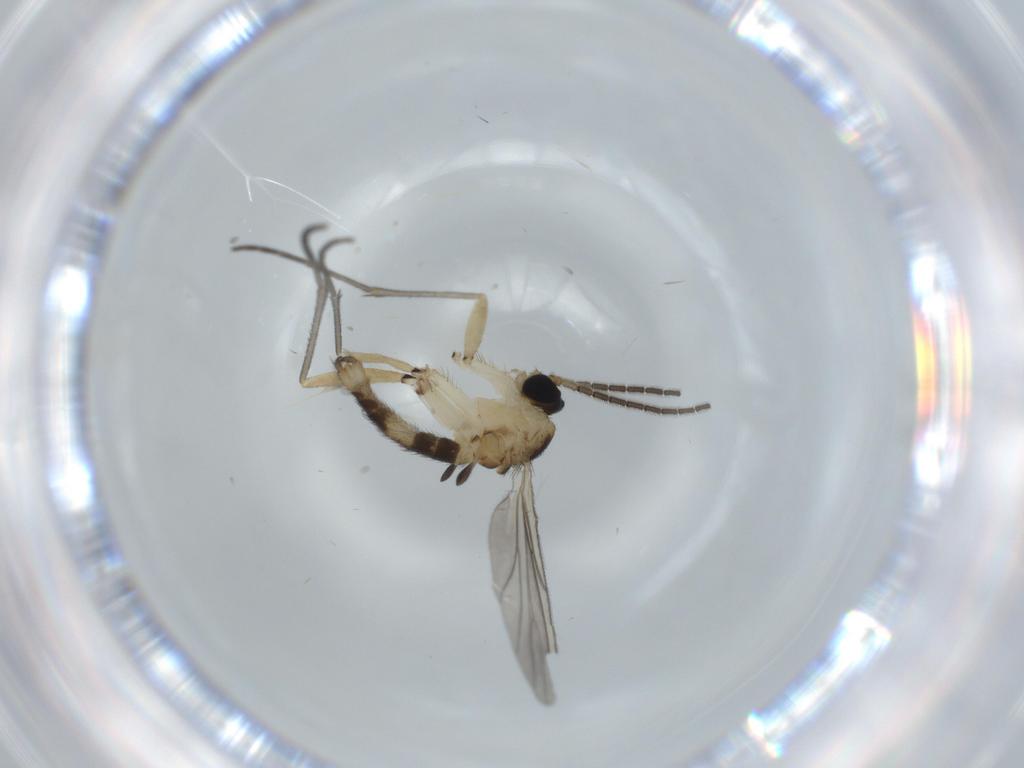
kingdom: Animalia
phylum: Arthropoda
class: Insecta
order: Diptera
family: Sciaridae
